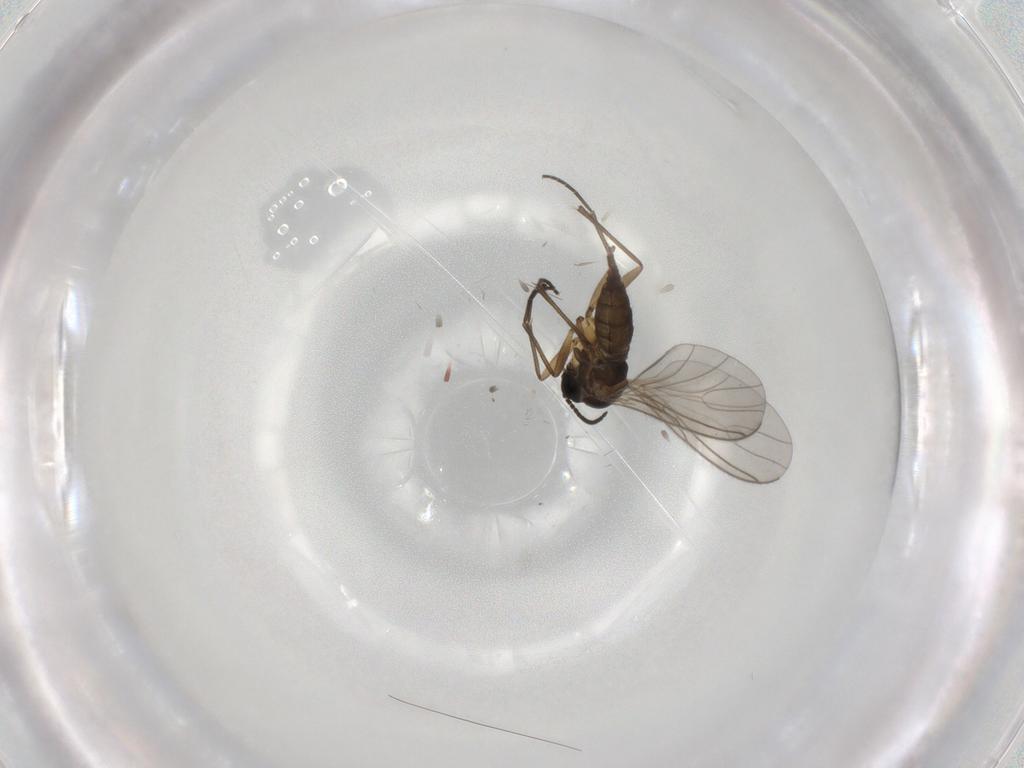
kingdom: Animalia
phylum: Arthropoda
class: Insecta
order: Diptera
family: Sciaridae
